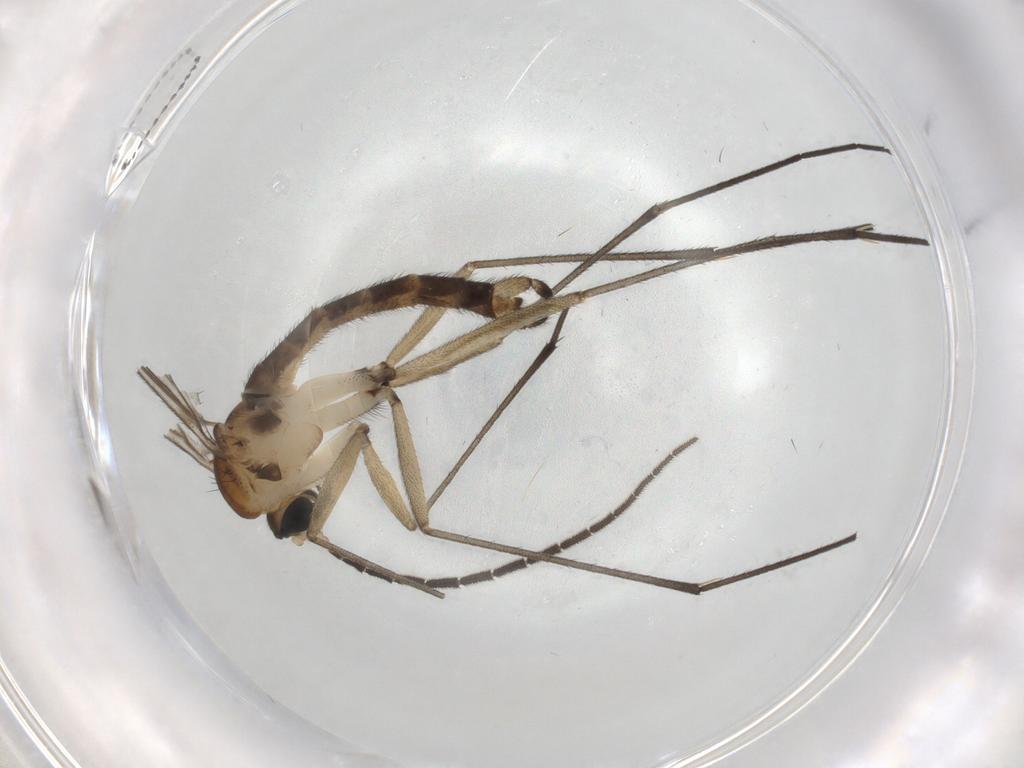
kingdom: Animalia
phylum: Arthropoda
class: Insecta
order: Diptera
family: Sciaridae
